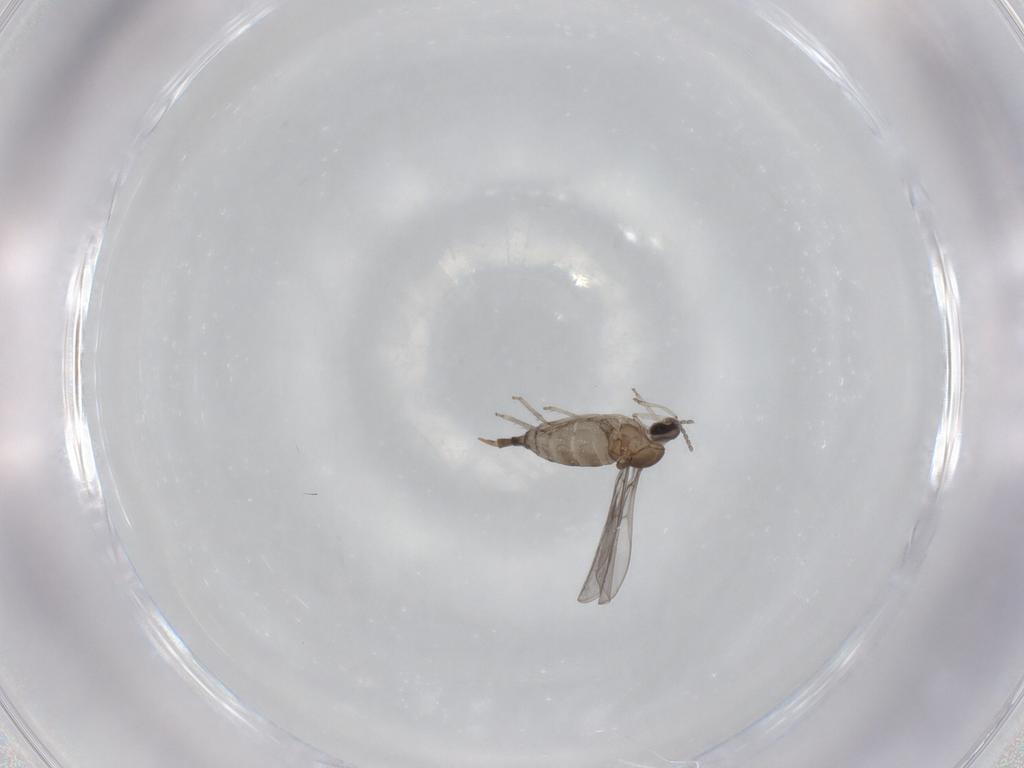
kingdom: Animalia
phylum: Arthropoda
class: Insecta
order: Diptera
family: Cecidomyiidae
